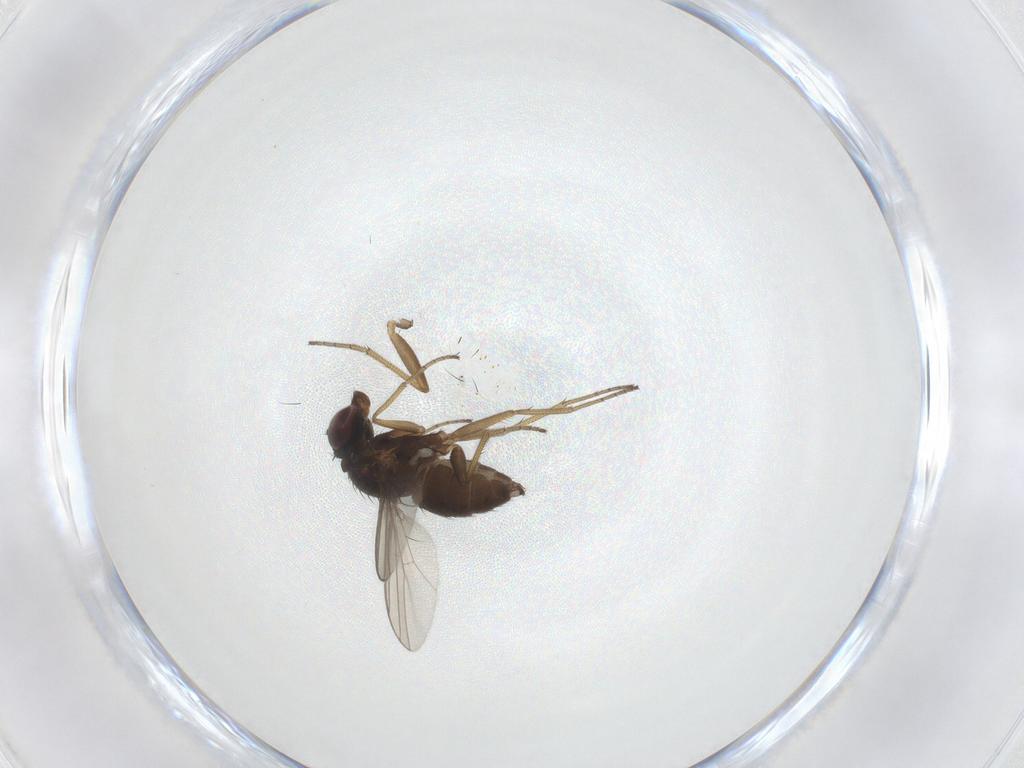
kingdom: Animalia
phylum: Arthropoda
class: Insecta
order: Diptera
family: Dolichopodidae
